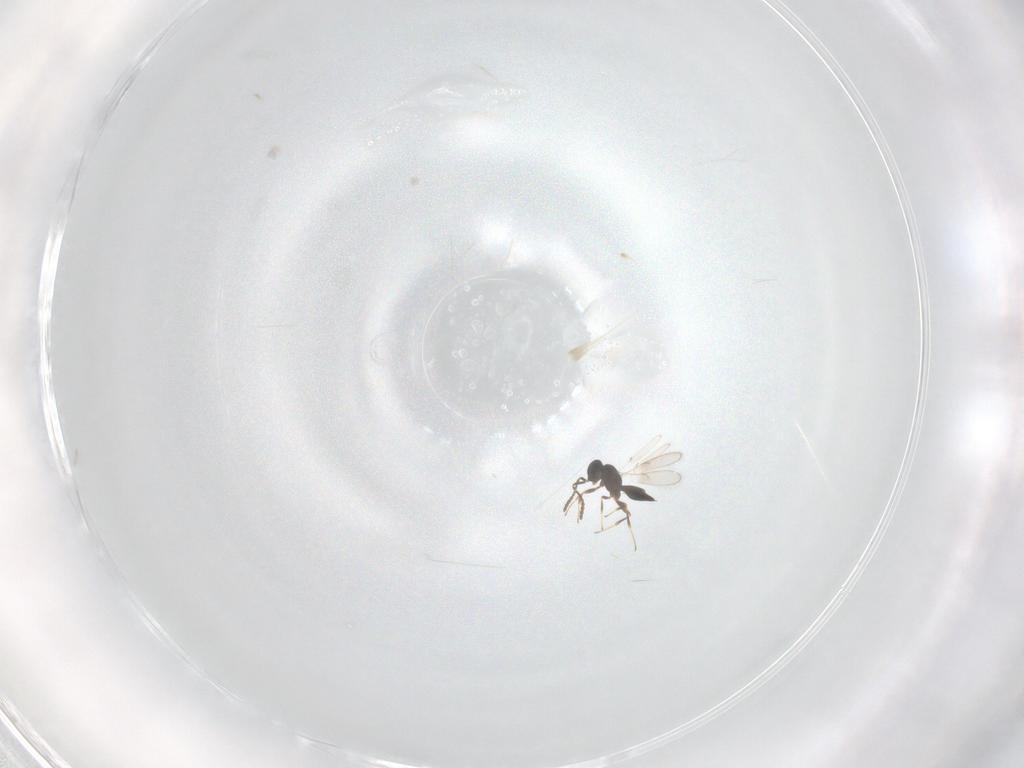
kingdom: Animalia
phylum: Arthropoda
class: Insecta
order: Hymenoptera
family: Scelionidae
